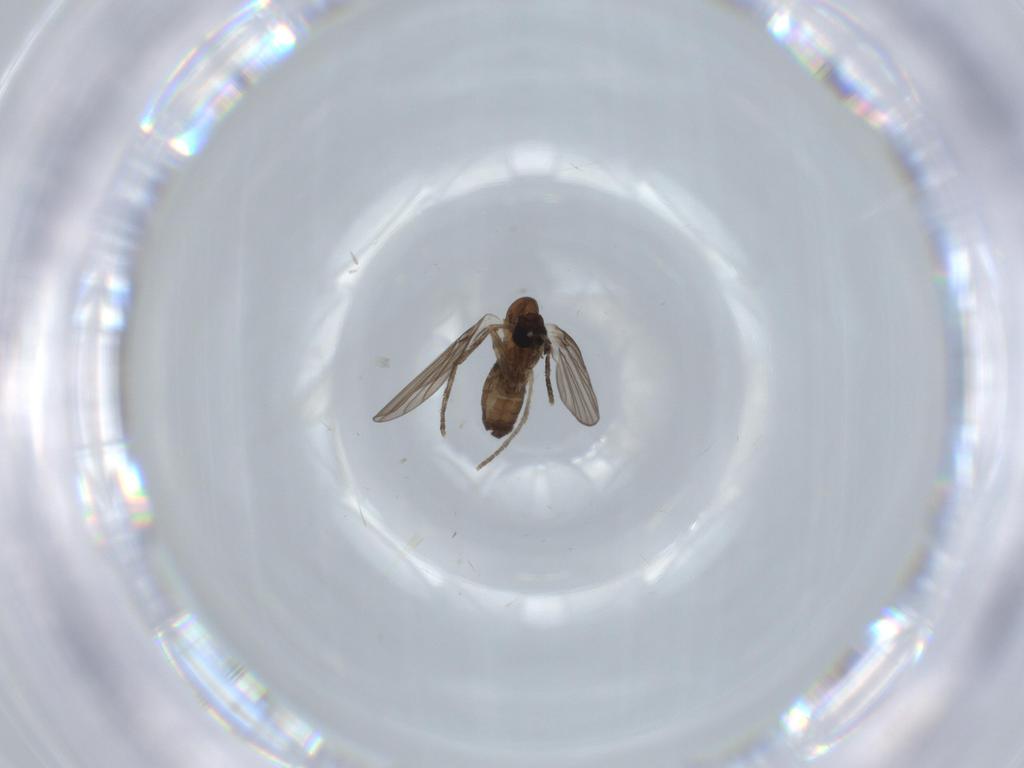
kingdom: Animalia
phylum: Arthropoda
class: Insecta
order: Diptera
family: Psychodidae
